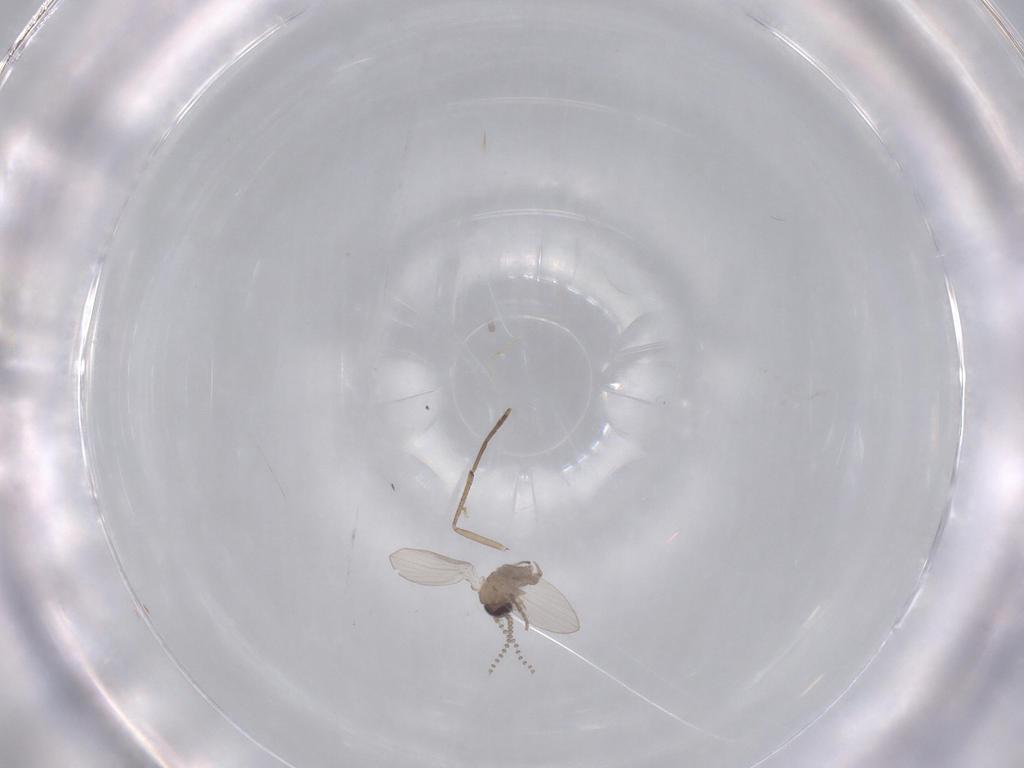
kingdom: Animalia
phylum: Arthropoda
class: Insecta
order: Diptera
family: Psychodidae
